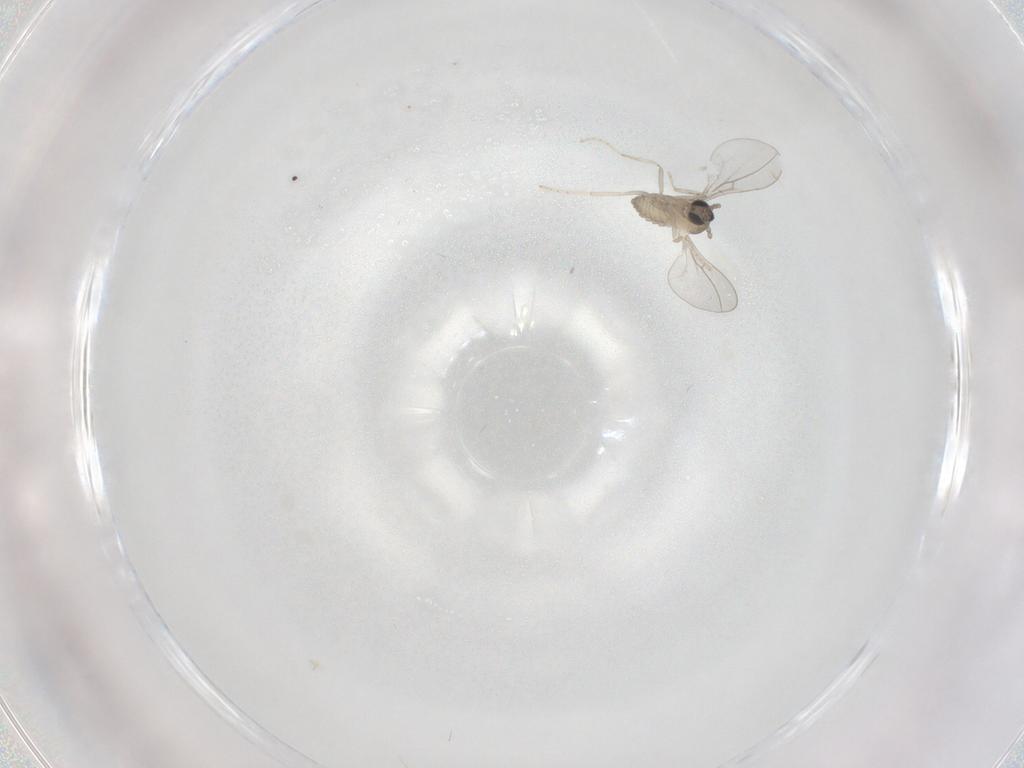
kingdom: Animalia
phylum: Arthropoda
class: Insecta
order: Diptera
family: Cecidomyiidae
